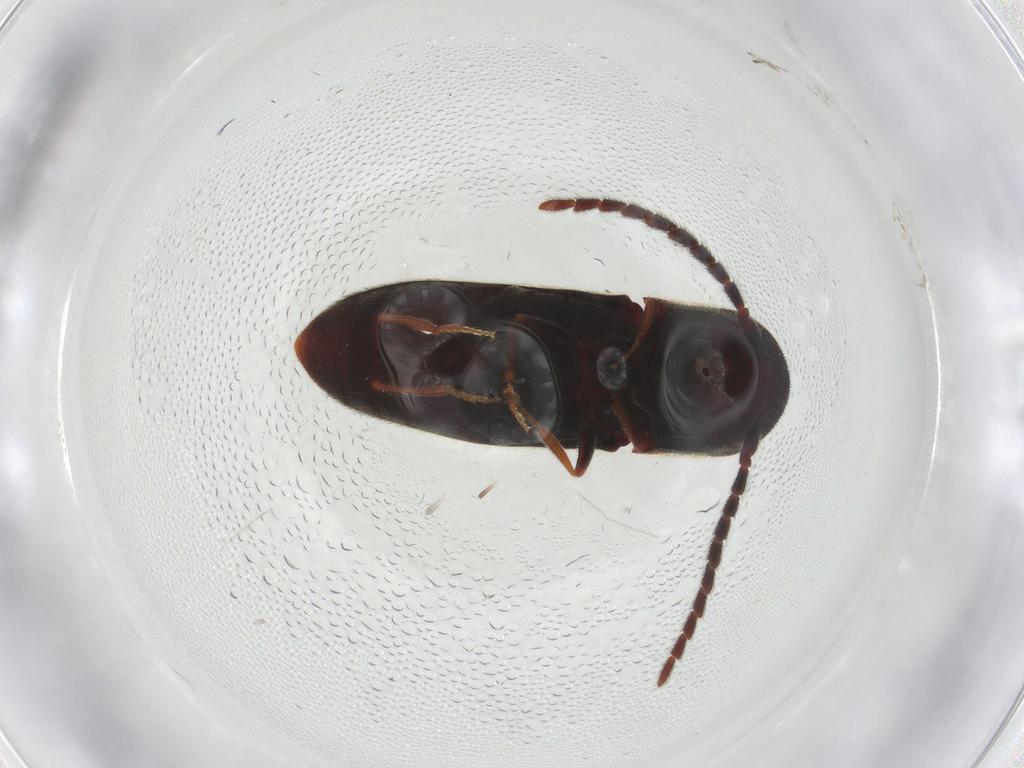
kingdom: Animalia
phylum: Arthropoda
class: Insecta
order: Coleoptera
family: Eucnemidae
